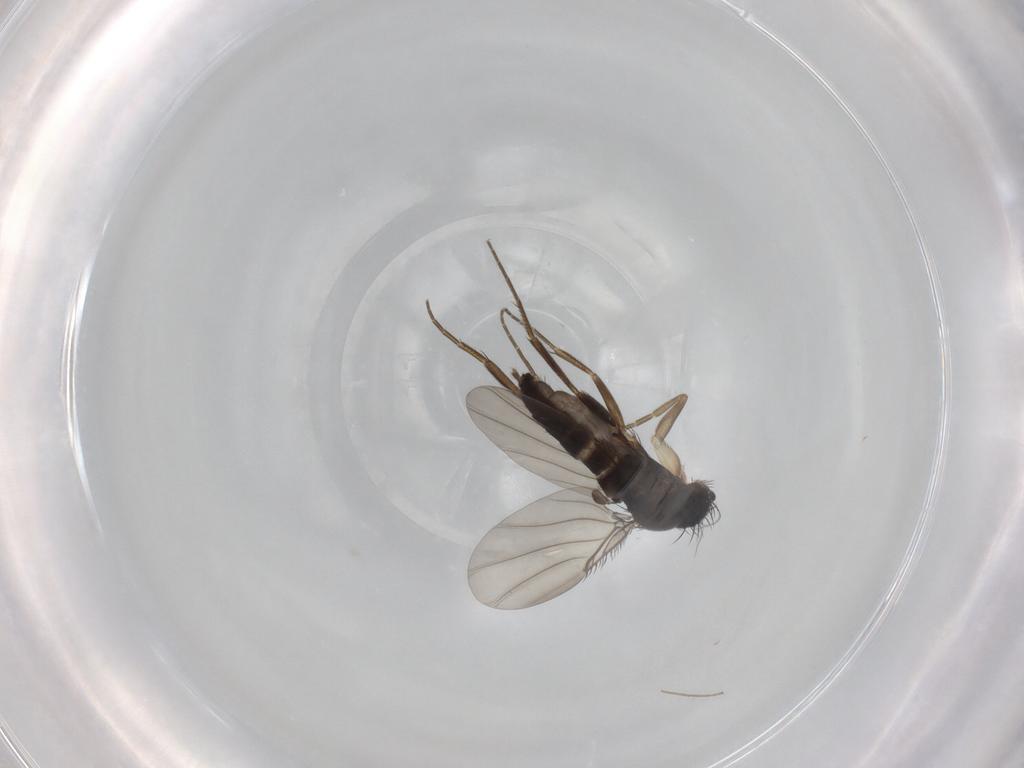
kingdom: Animalia
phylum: Arthropoda
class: Insecta
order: Diptera
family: Phoridae
